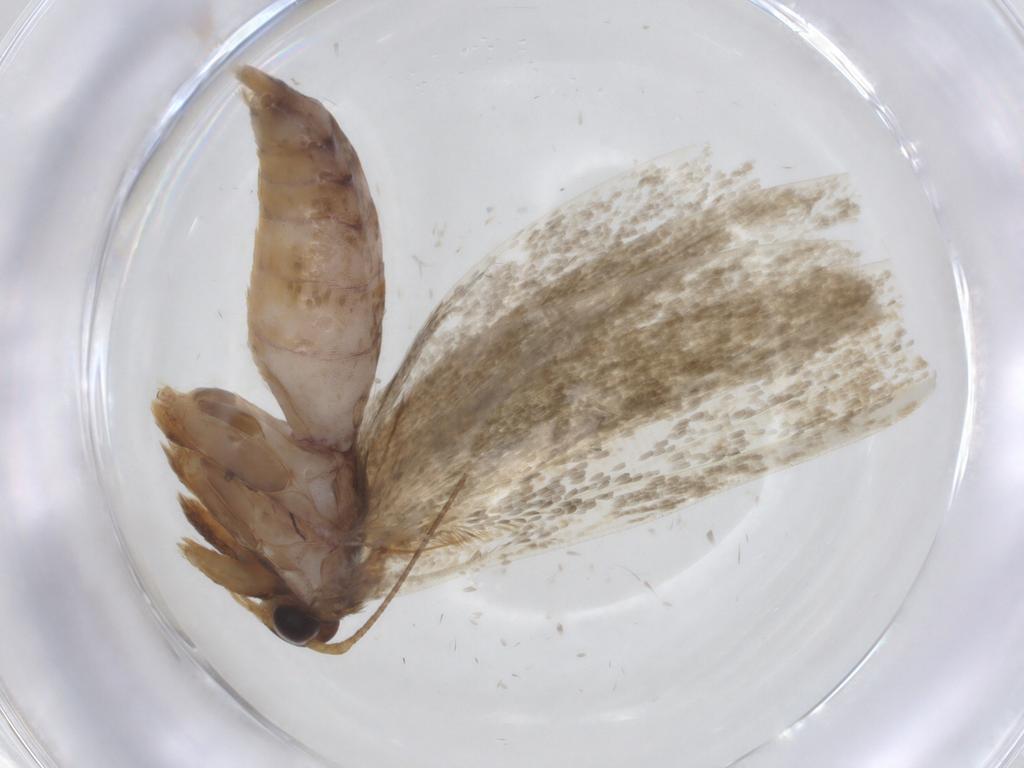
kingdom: Animalia
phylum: Arthropoda
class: Insecta
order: Lepidoptera
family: Blastobasidae
